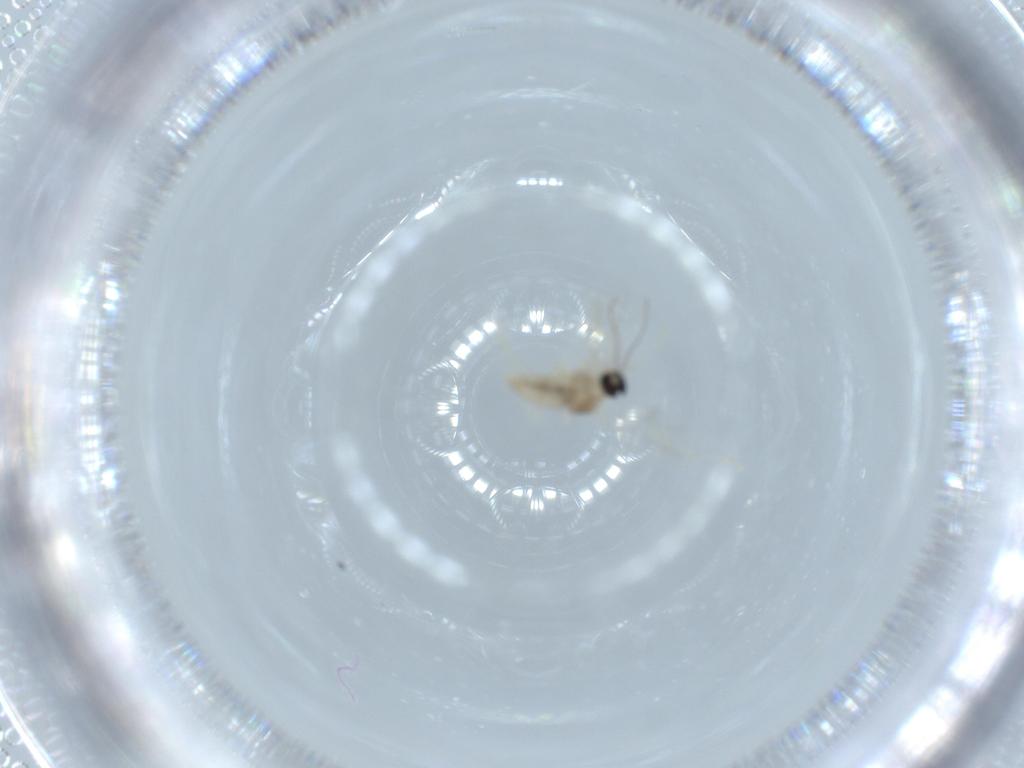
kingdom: Animalia
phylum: Arthropoda
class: Insecta
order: Diptera
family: Cecidomyiidae
